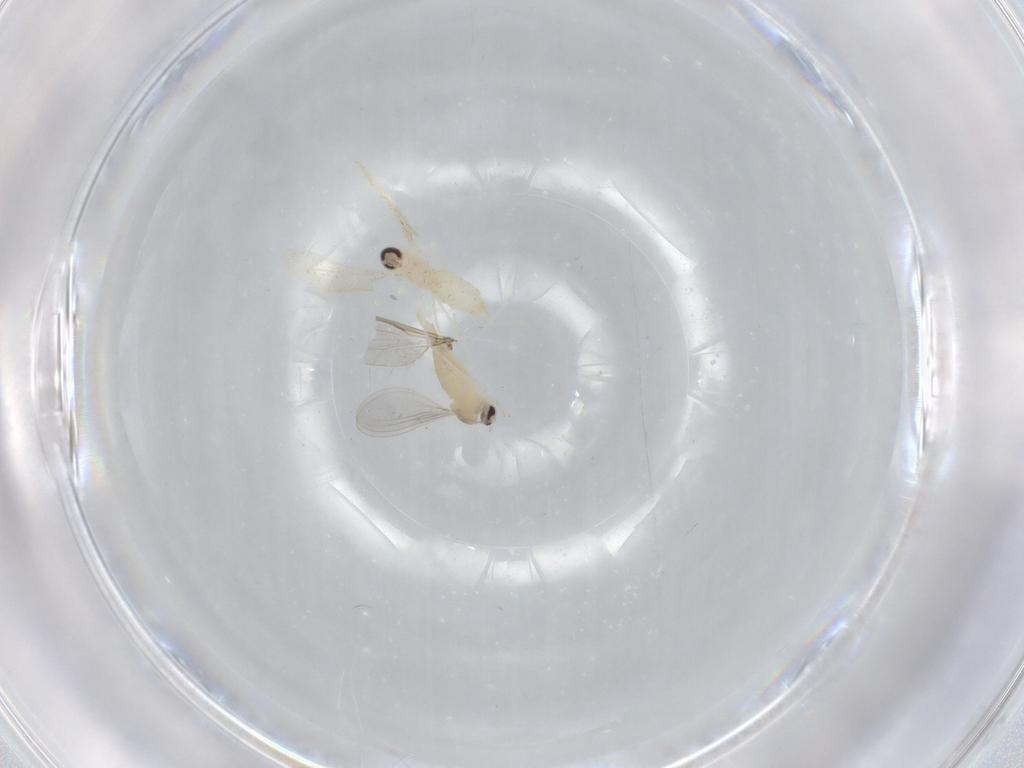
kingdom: Animalia
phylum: Arthropoda
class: Insecta
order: Diptera
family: Cecidomyiidae
